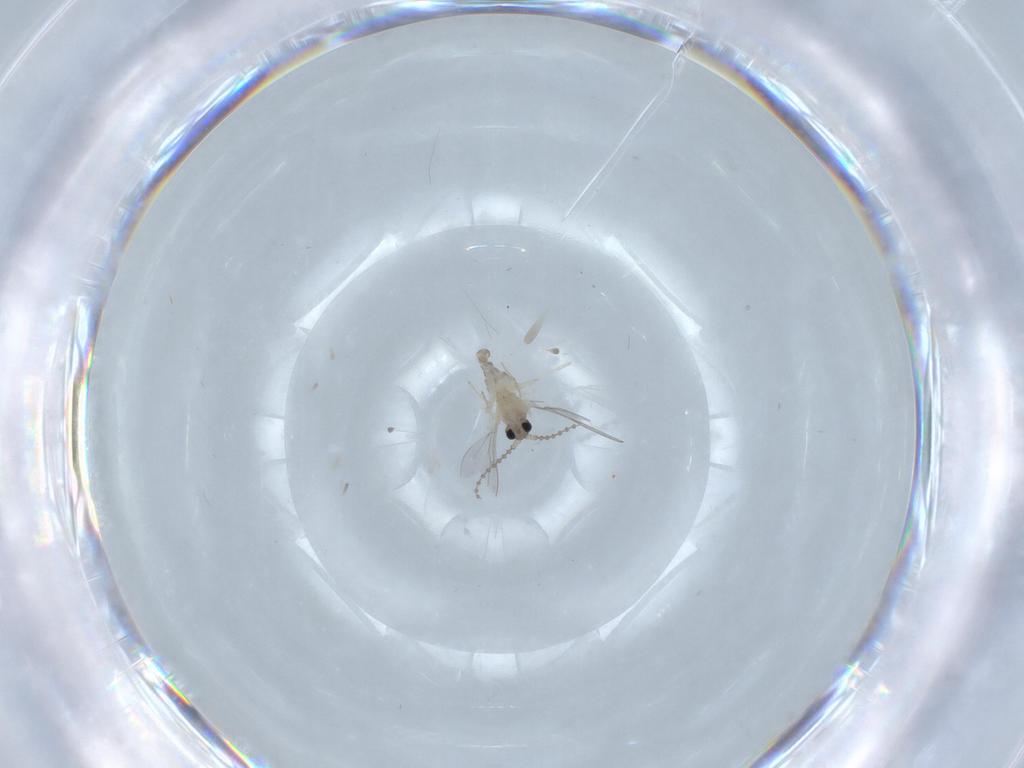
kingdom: Animalia
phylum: Arthropoda
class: Insecta
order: Diptera
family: Cecidomyiidae
